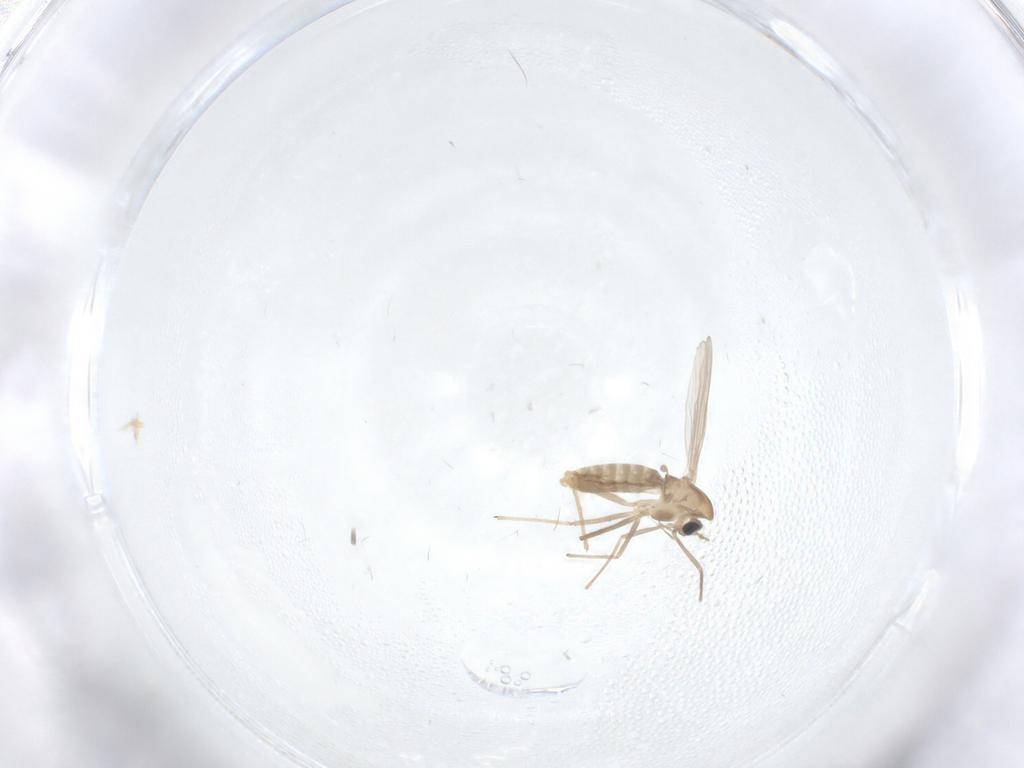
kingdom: Animalia
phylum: Arthropoda
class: Insecta
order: Diptera
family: Chironomidae
